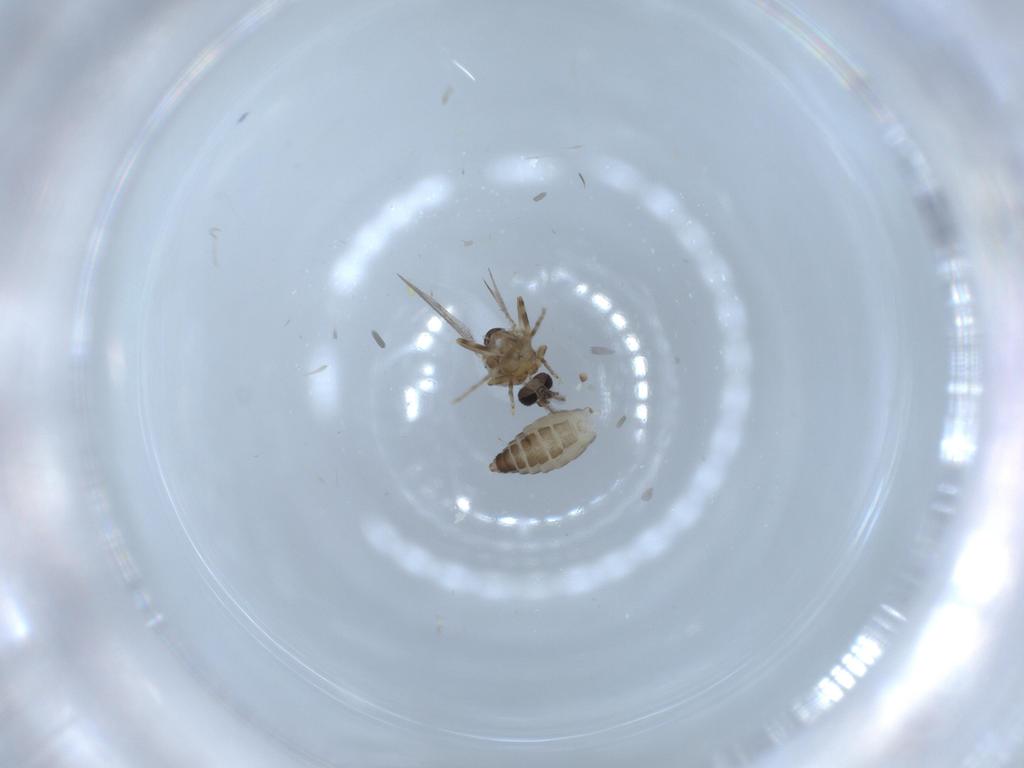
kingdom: Animalia
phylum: Arthropoda
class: Insecta
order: Diptera
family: Ceratopogonidae
